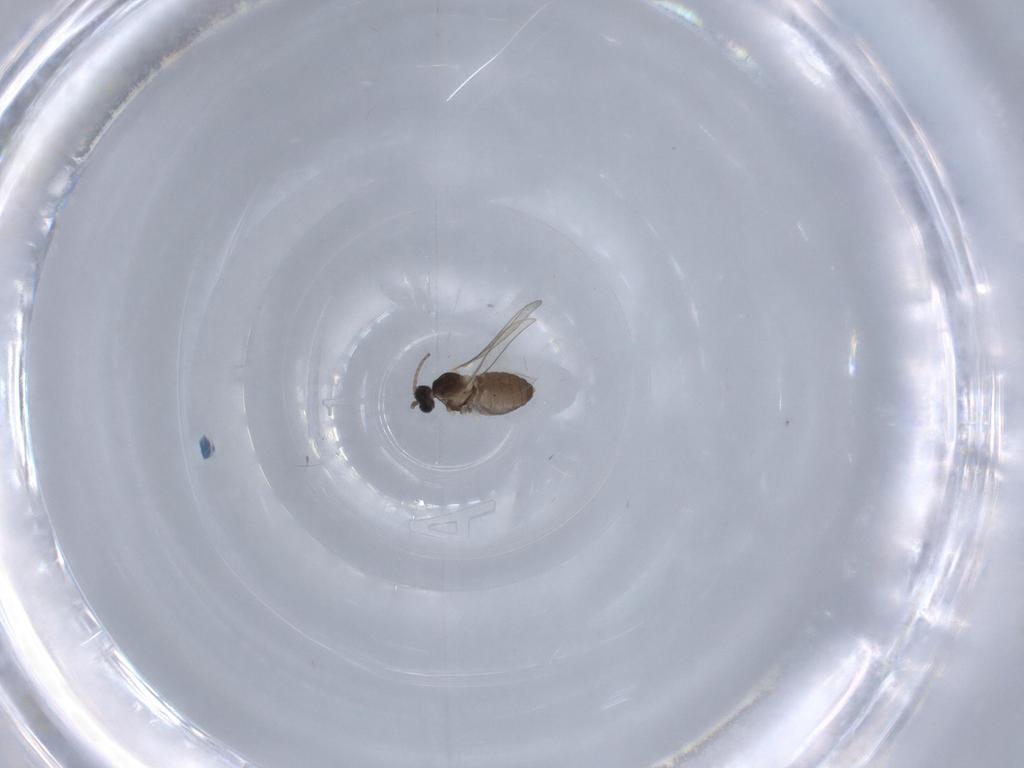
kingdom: Animalia
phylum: Arthropoda
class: Insecta
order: Diptera
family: Cecidomyiidae
